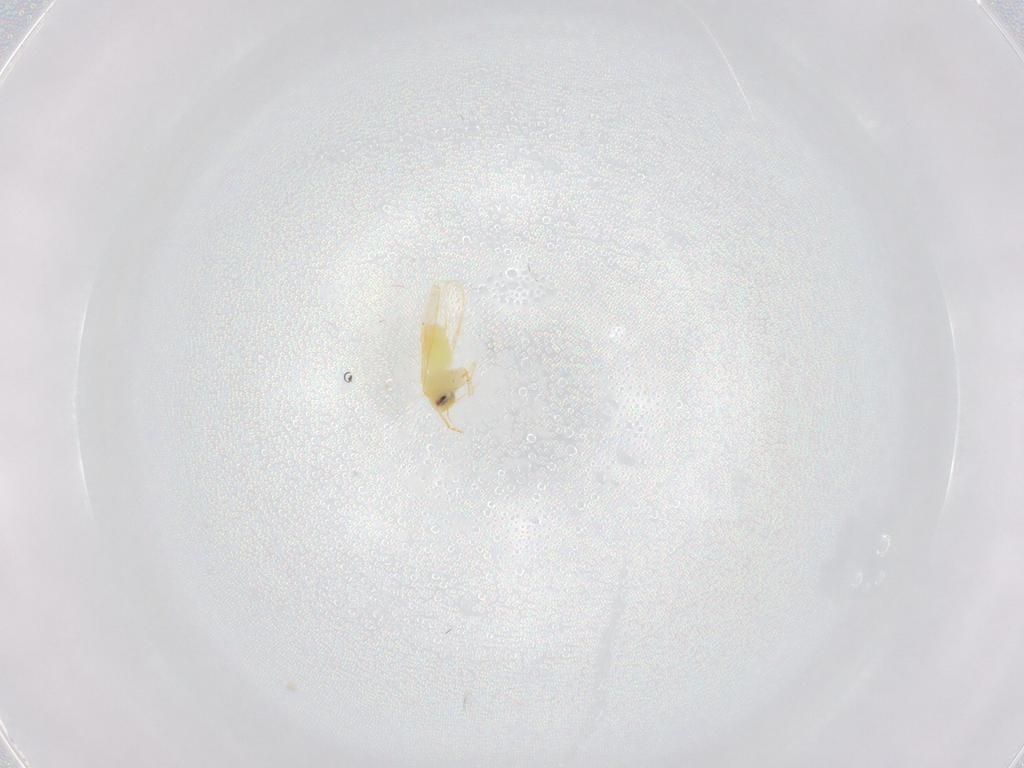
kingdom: Animalia
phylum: Arthropoda
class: Insecta
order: Hemiptera
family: Aleyrodidae
